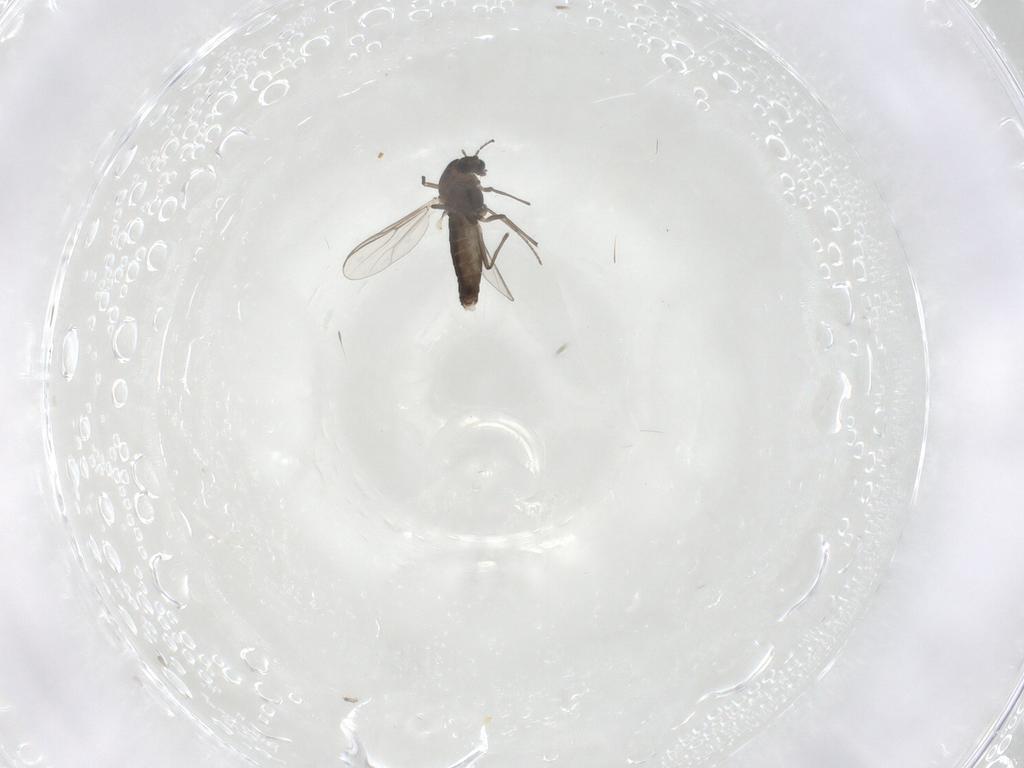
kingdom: Animalia
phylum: Arthropoda
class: Insecta
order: Diptera
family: Chironomidae
